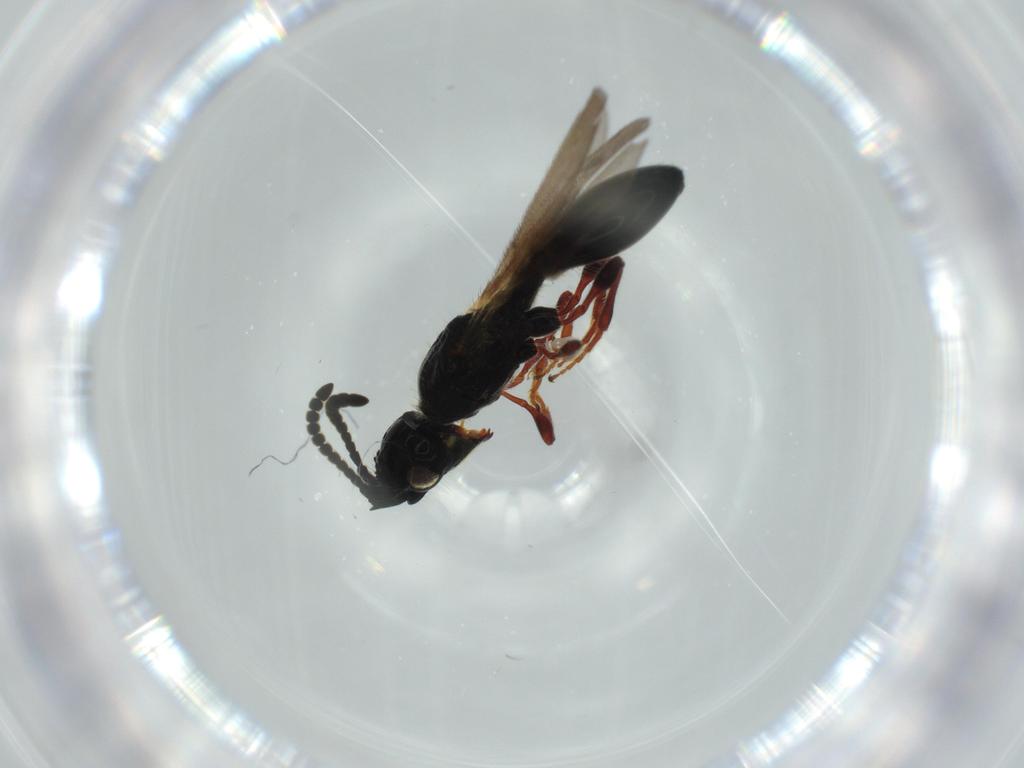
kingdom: Animalia
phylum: Arthropoda
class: Insecta
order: Hymenoptera
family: Diapriidae
